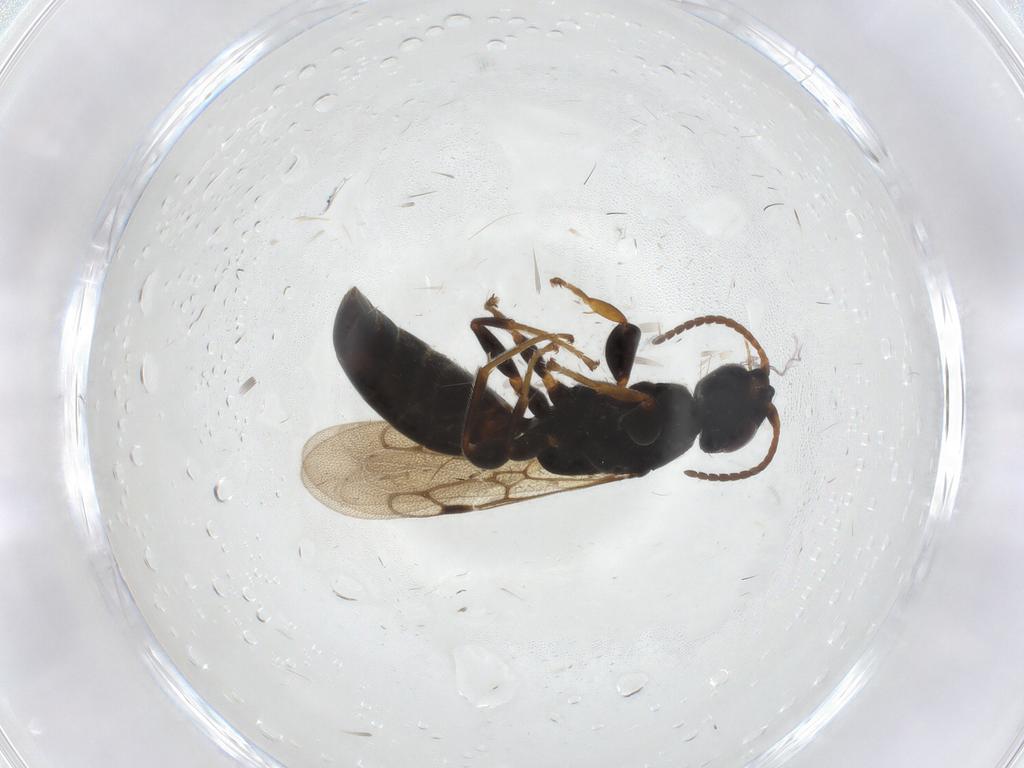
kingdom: Animalia
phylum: Arthropoda
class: Insecta
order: Hymenoptera
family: Bethylidae
